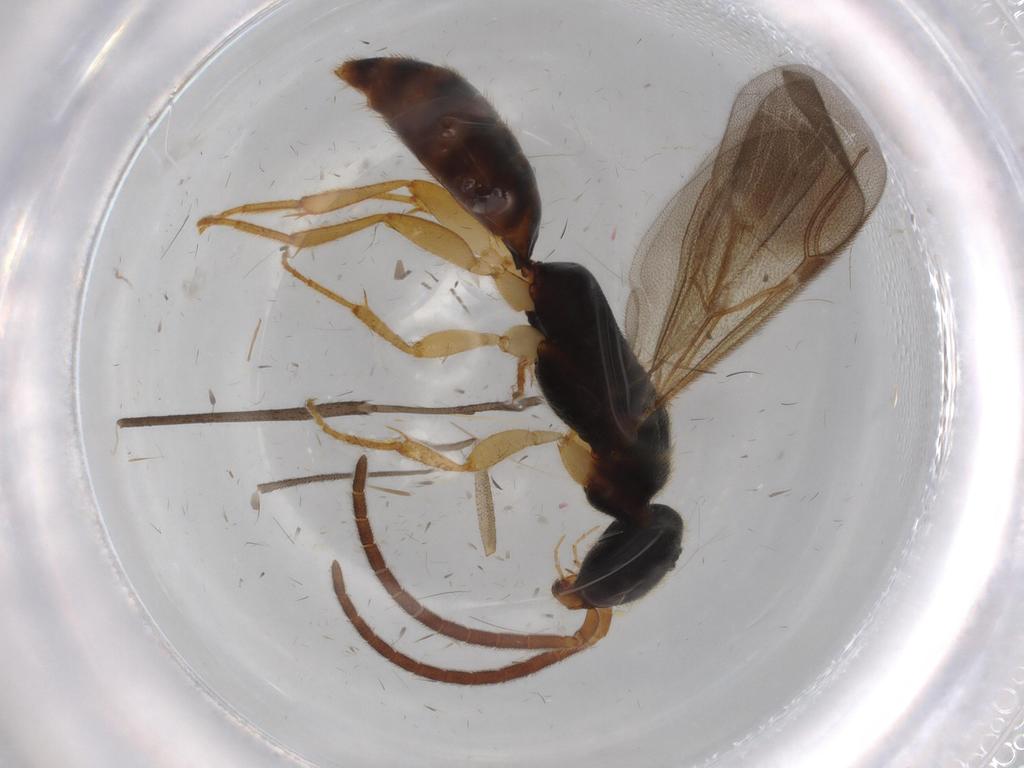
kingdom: Animalia
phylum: Arthropoda
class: Insecta
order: Hymenoptera
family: Bethylidae
